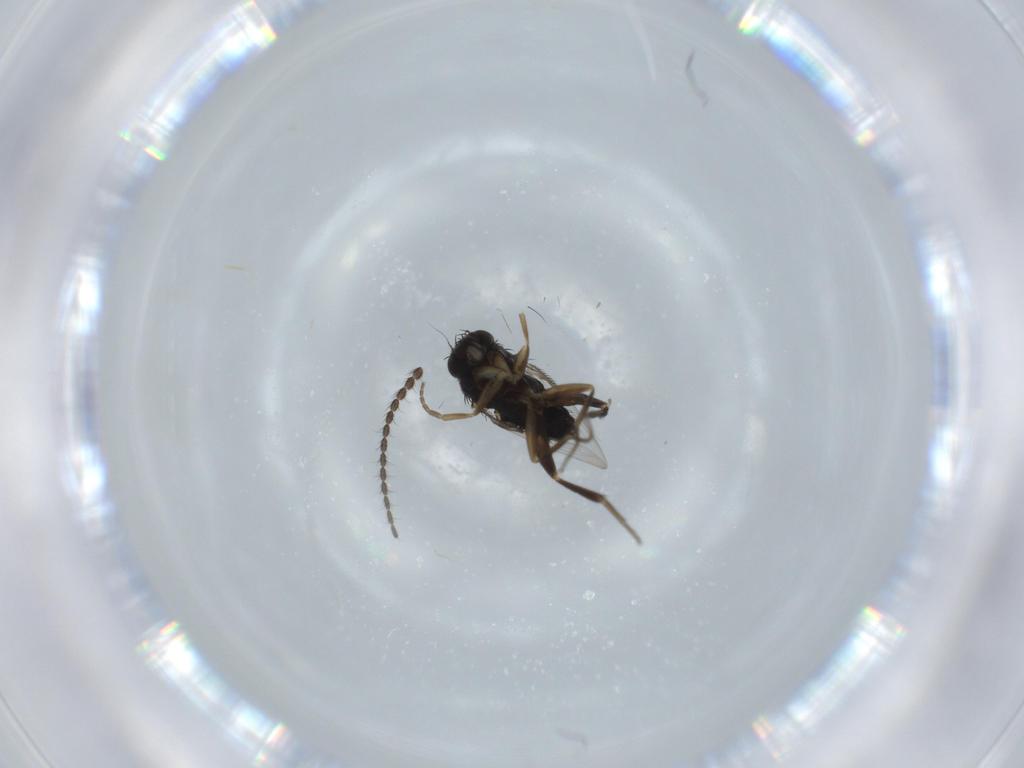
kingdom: Animalia
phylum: Arthropoda
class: Insecta
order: Diptera
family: Phoridae
